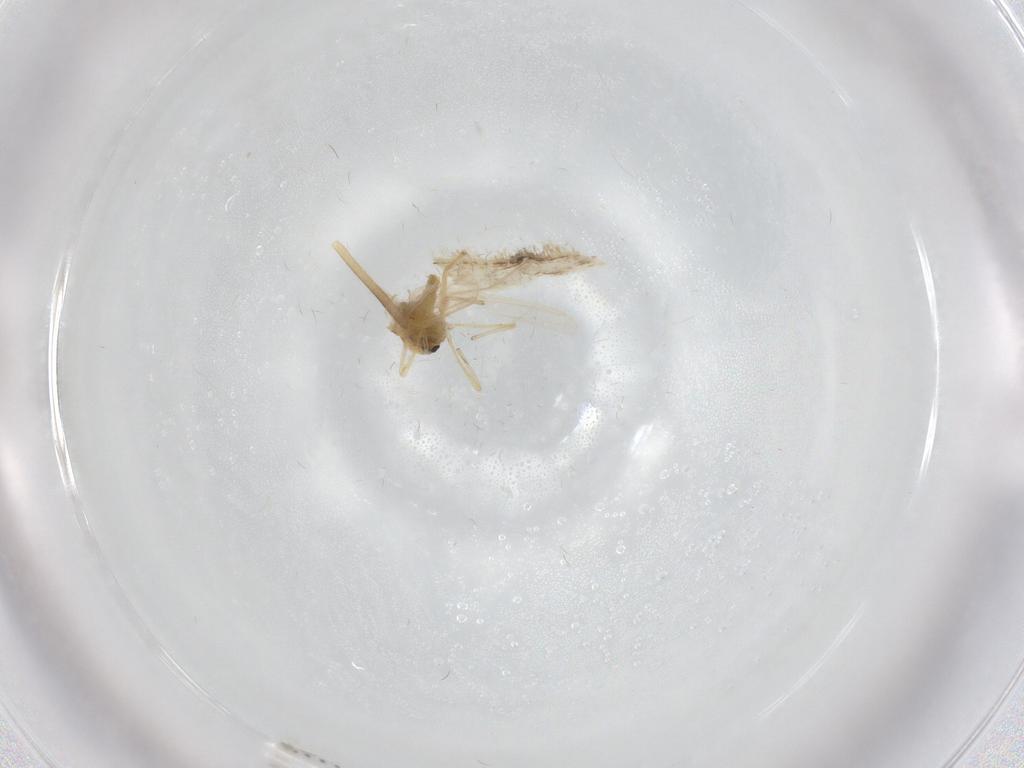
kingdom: Animalia
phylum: Arthropoda
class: Insecta
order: Diptera
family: Chironomidae
